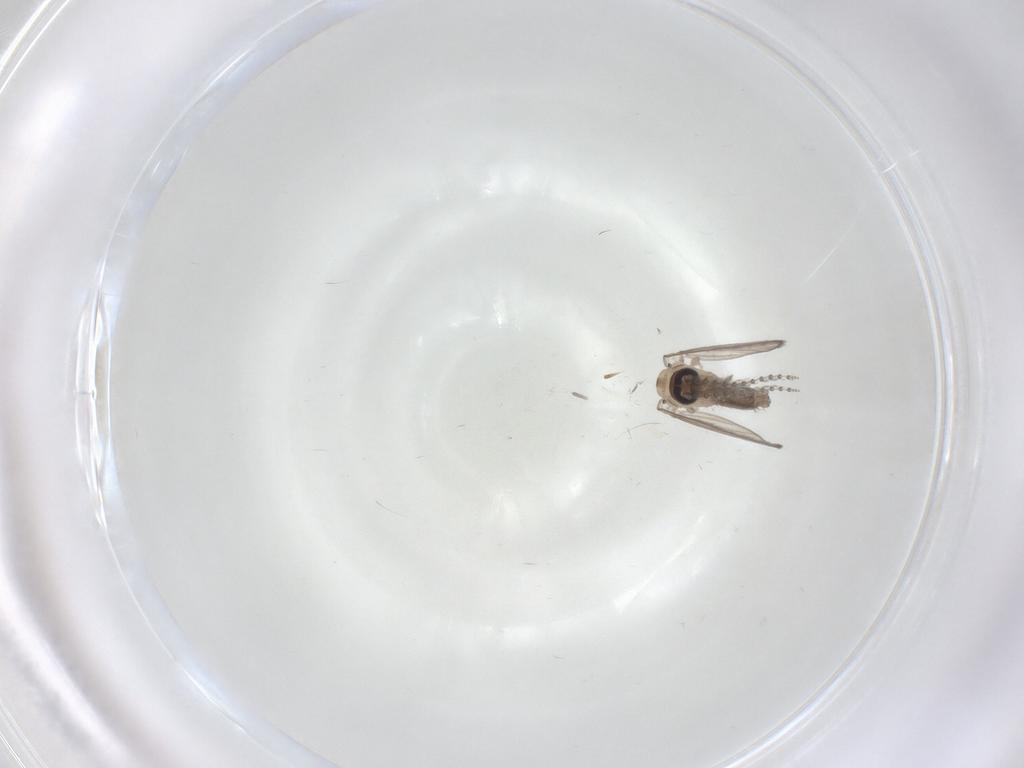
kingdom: Animalia
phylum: Arthropoda
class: Insecta
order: Diptera
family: Psychodidae
